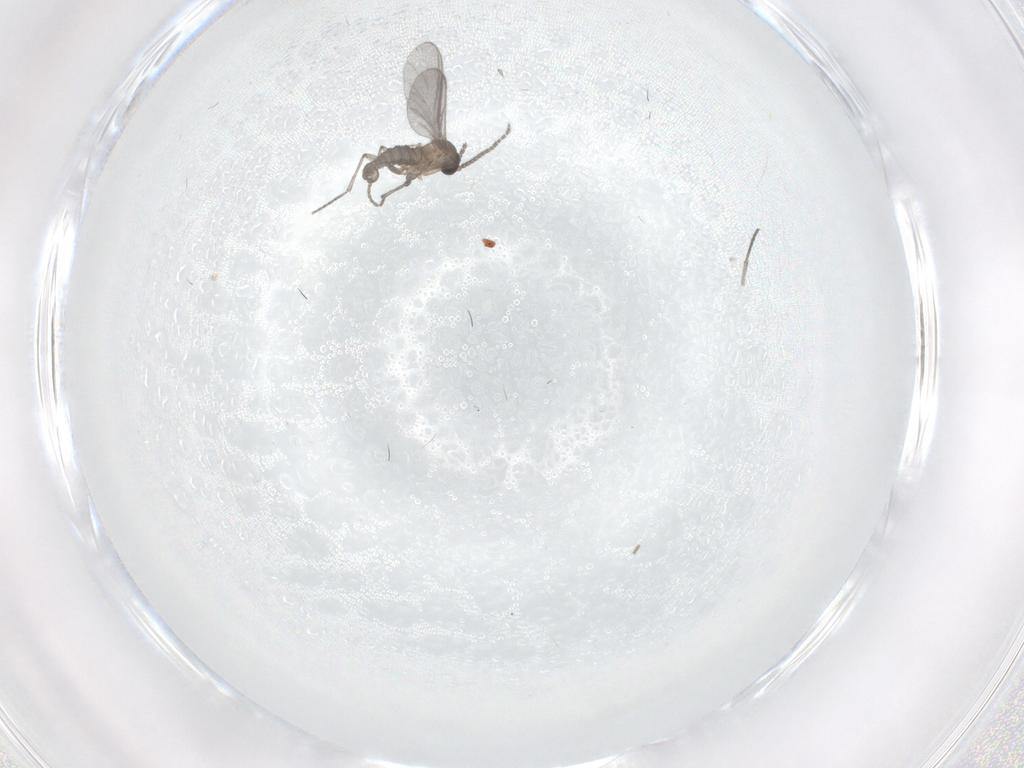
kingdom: Animalia
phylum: Arthropoda
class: Insecta
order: Diptera
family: Sciaridae
